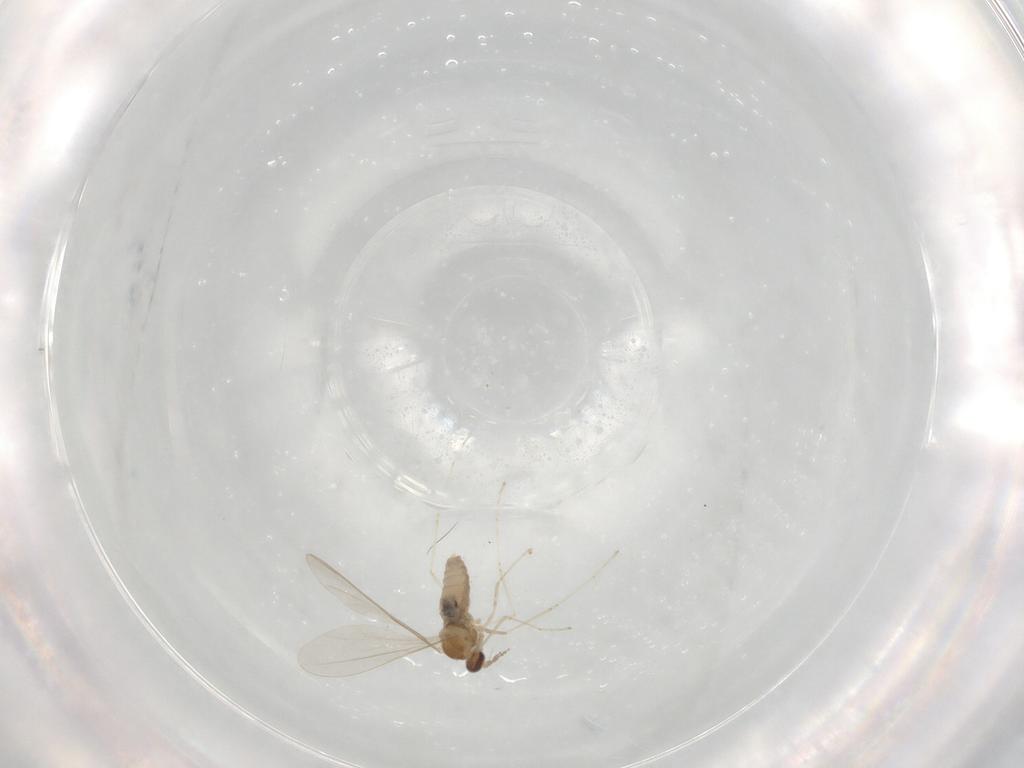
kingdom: Animalia
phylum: Arthropoda
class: Insecta
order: Diptera
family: Cecidomyiidae
